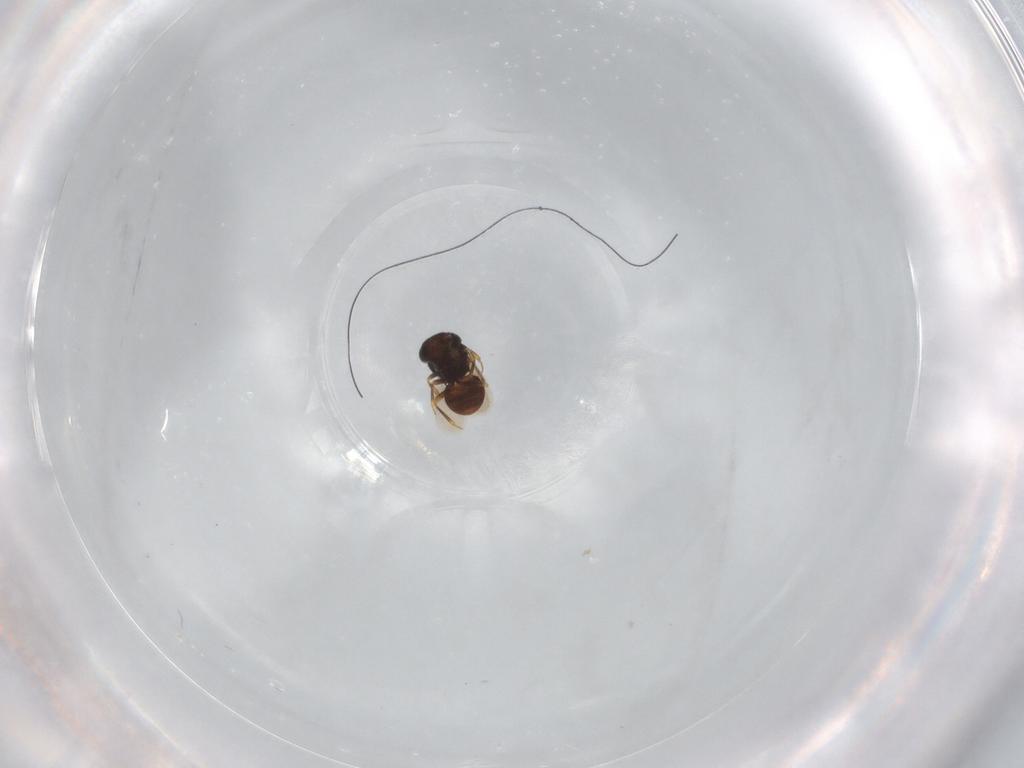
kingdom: Animalia
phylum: Arthropoda
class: Insecta
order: Hymenoptera
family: Scelionidae
